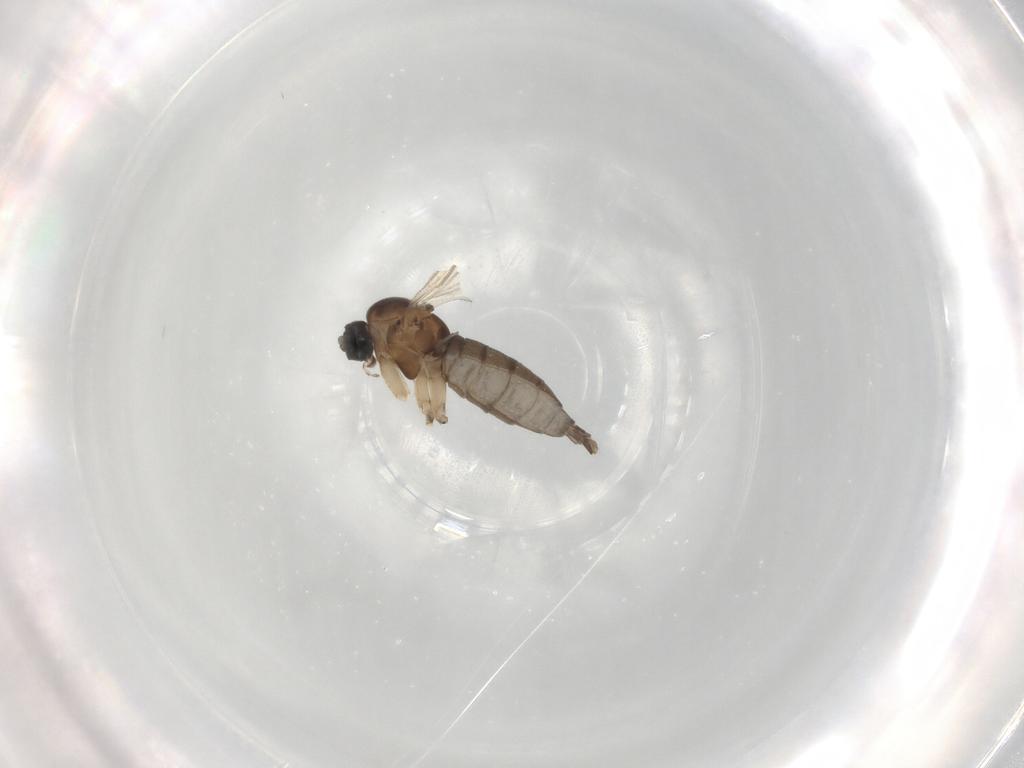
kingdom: Animalia
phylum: Arthropoda
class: Insecta
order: Diptera
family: Sciaridae
